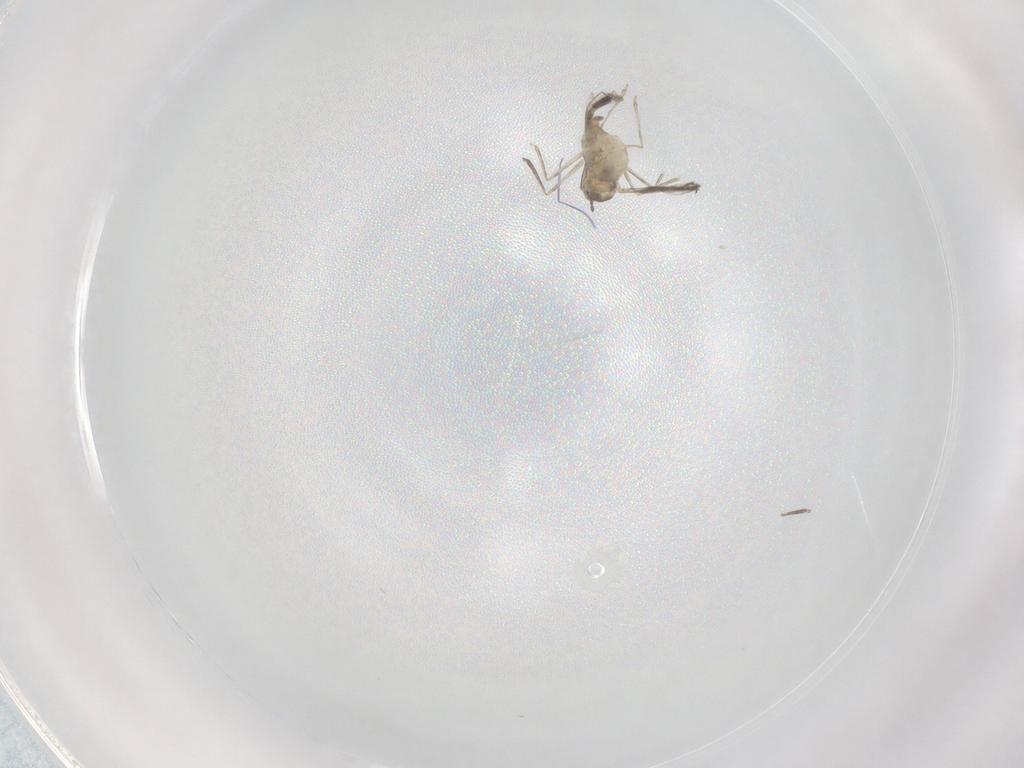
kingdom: Animalia
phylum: Arthropoda
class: Insecta
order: Diptera
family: Cecidomyiidae
